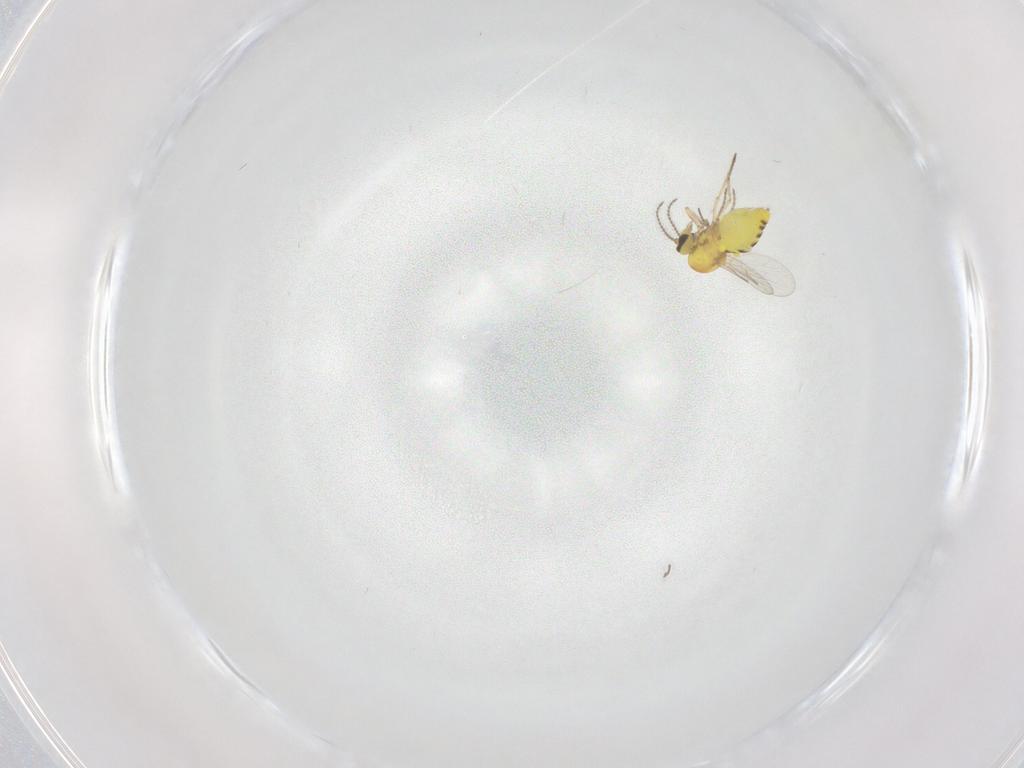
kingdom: Animalia
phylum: Arthropoda
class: Insecta
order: Diptera
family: Ceratopogonidae
